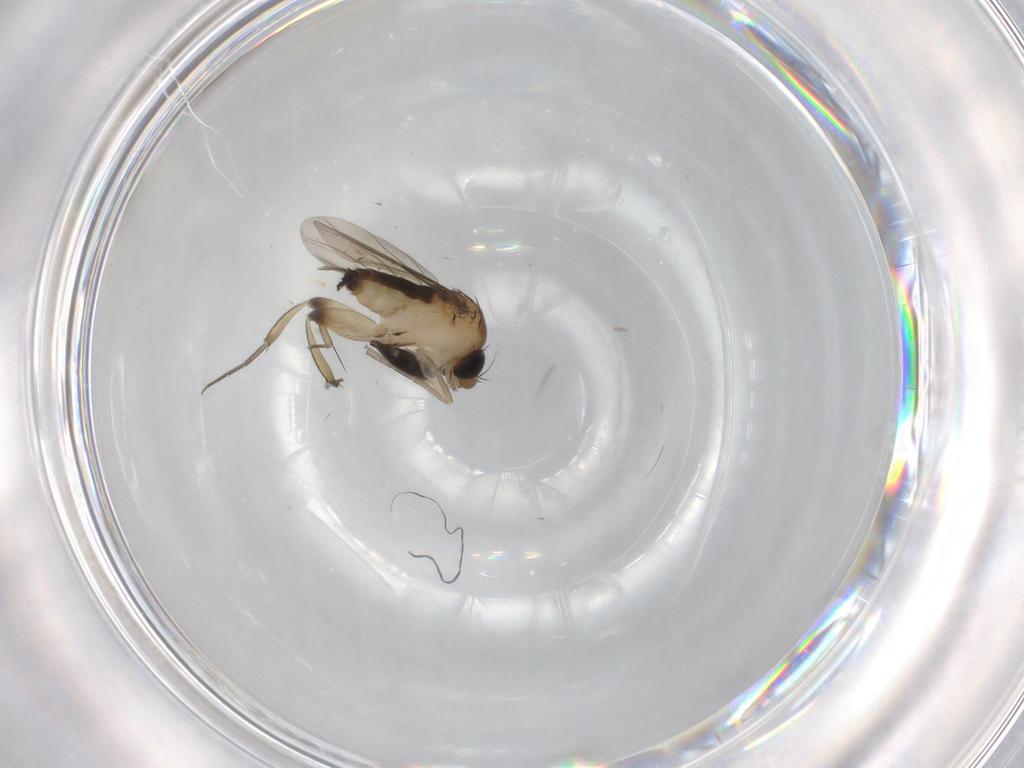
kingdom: Animalia
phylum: Arthropoda
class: Insecta
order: Diptera
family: Phoridae
